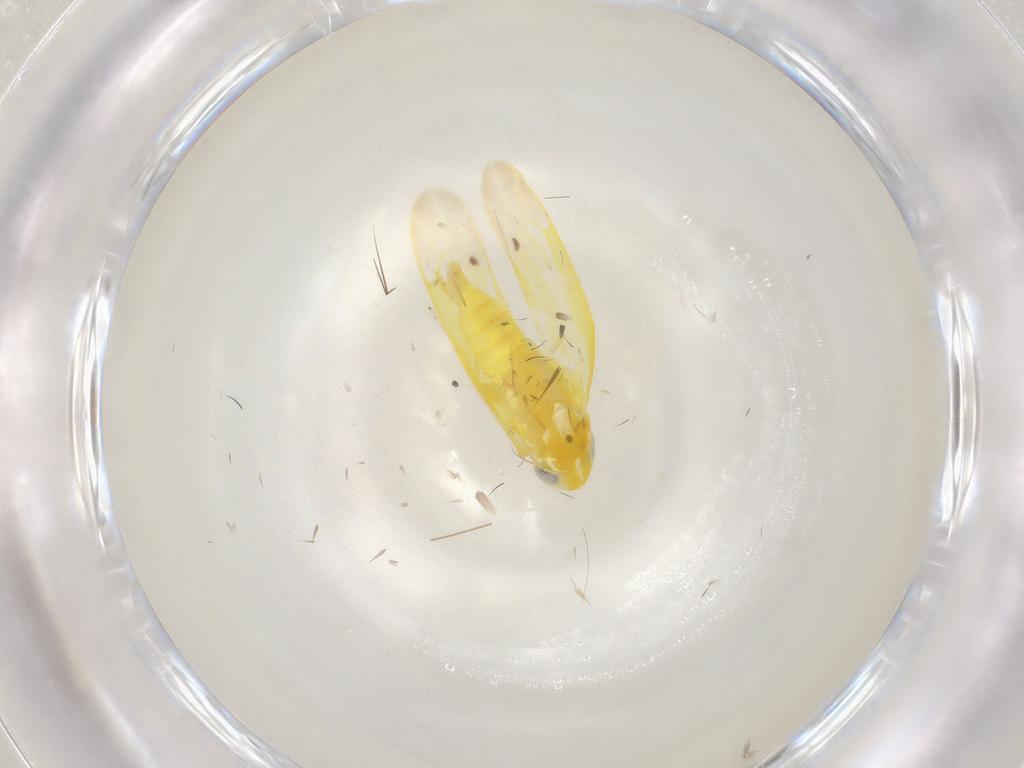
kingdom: Animalia
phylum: Arthropoda
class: Insecta
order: Hemiptera
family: Cicadellidae
